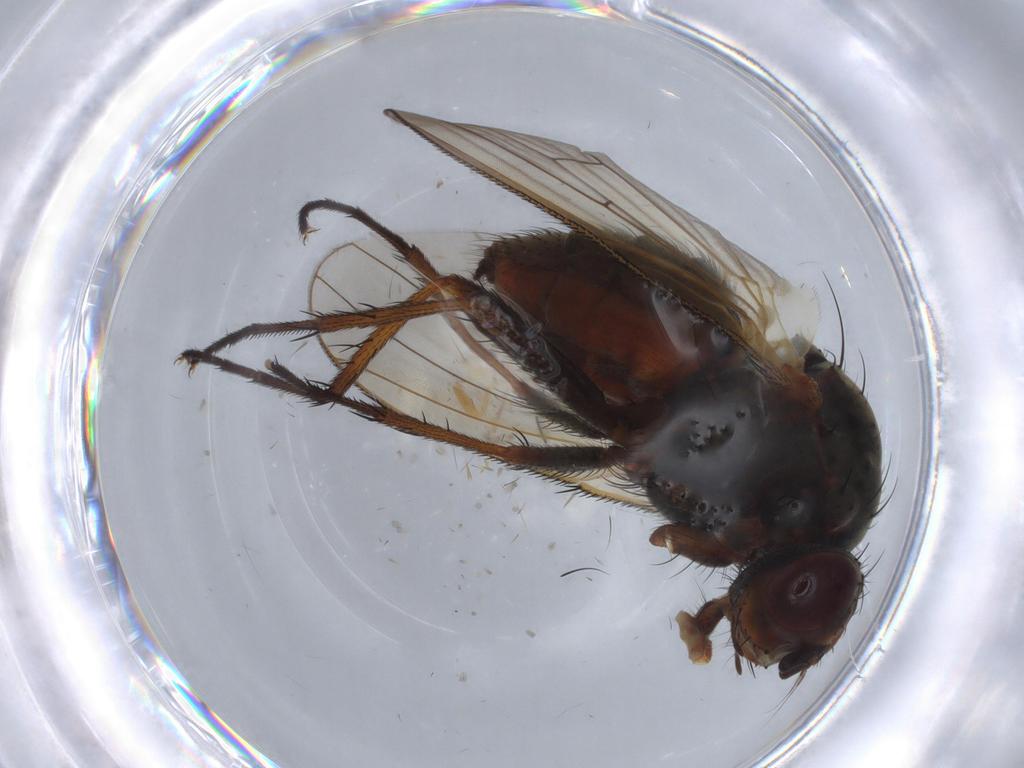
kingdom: Animalia
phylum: Arthropoda
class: Insecta
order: Diptera
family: Anthomyiidae
